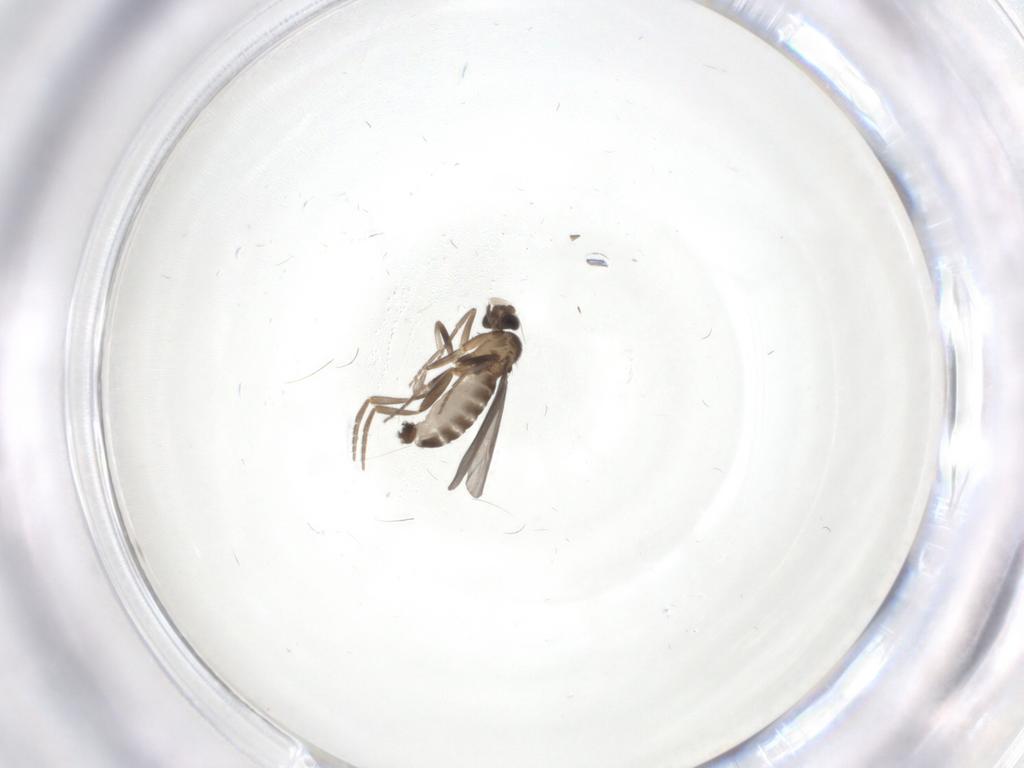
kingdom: Animalia
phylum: Arthropoda
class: Insecta
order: Diptera
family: Phoridae
